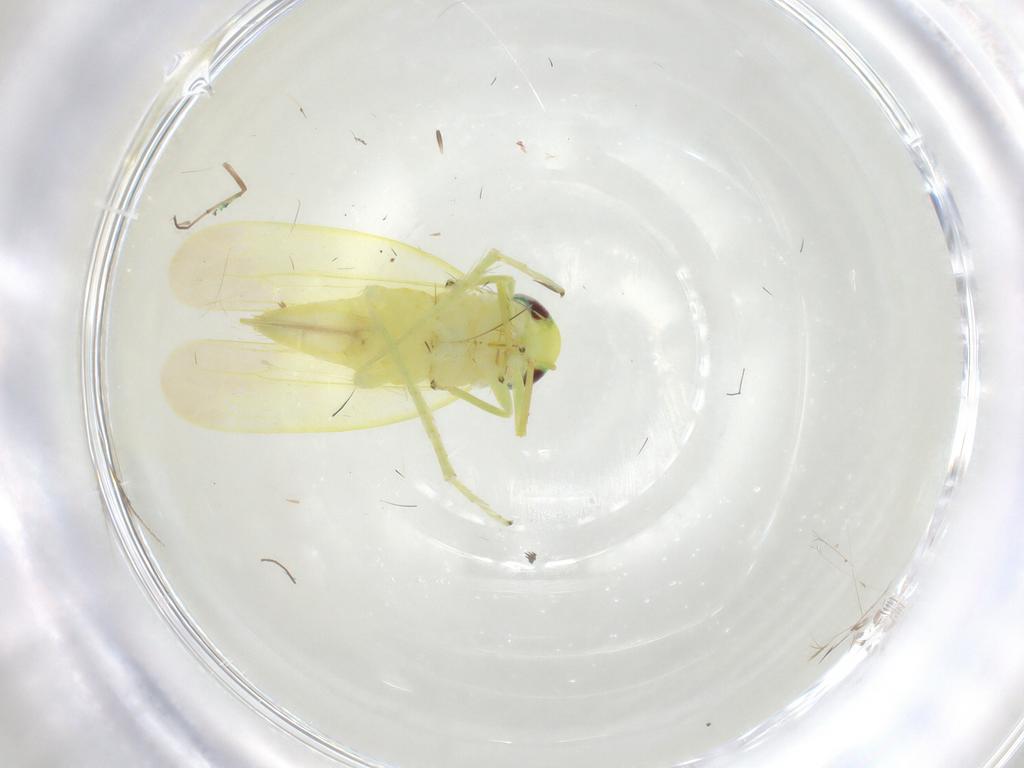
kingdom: Animalia
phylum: Arthropoda
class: Insecta
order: Hemiptera
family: Cicadellidae
